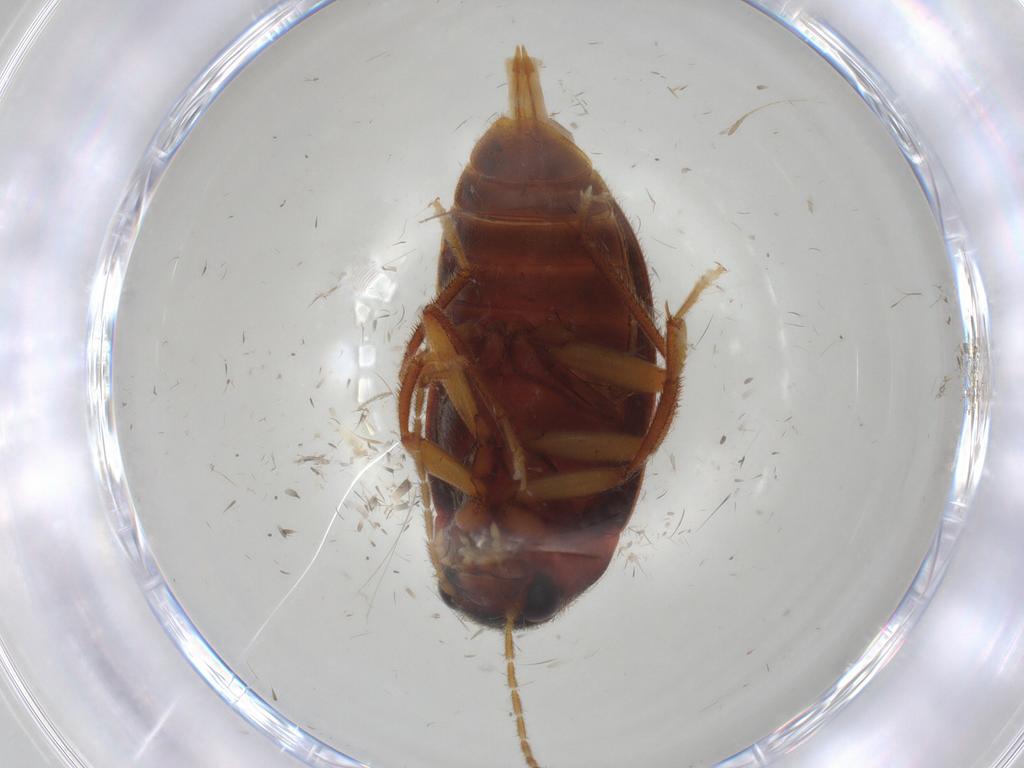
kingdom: Animalia
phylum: Arthropoda
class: Insecta
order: Coleoptera
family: Ptilodactylidae
